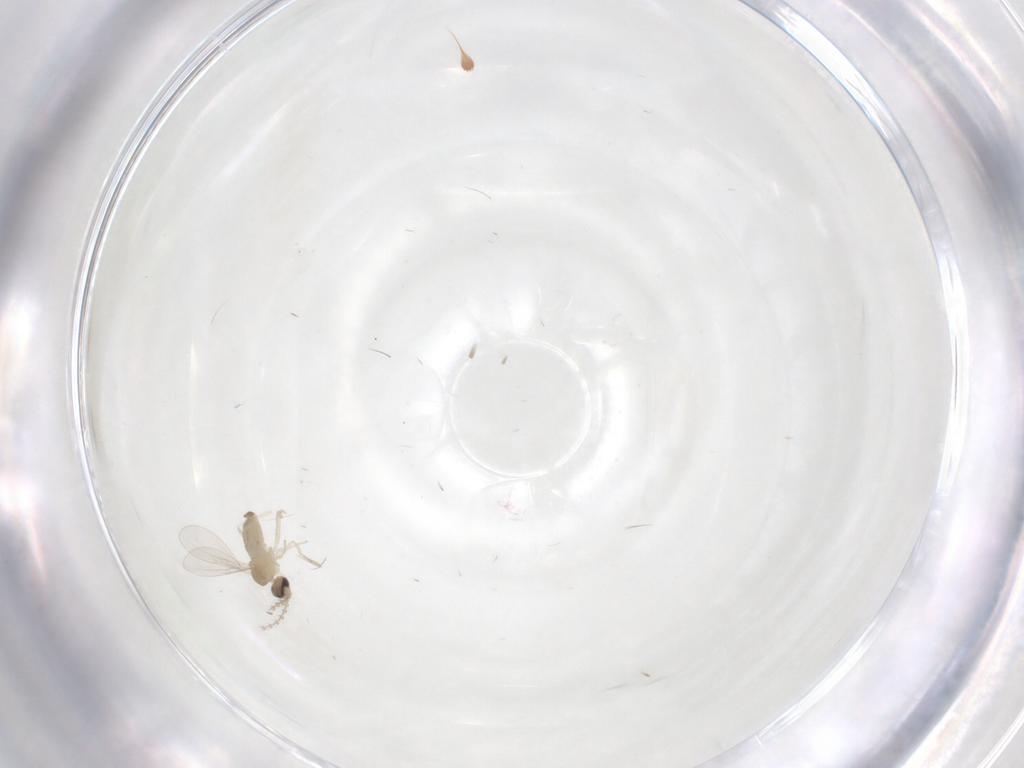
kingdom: Animalia
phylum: Arthropoda
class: Insecta
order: Diptera
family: Cecidomyiidae
